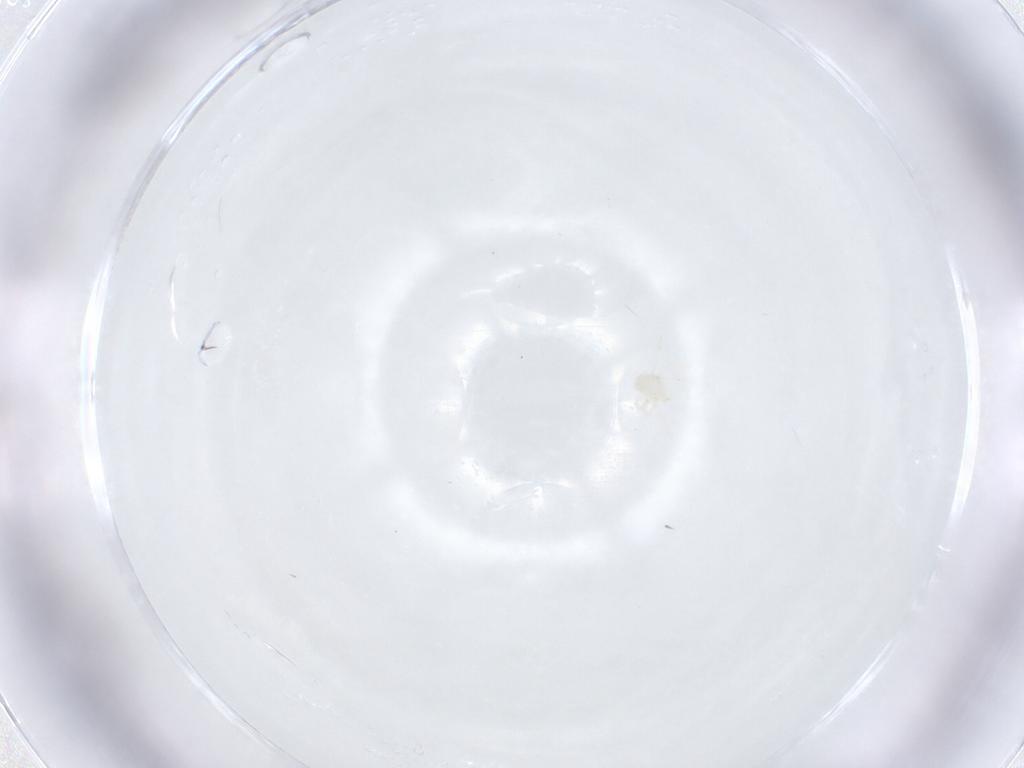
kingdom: Animalia
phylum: Arthropoda
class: Arachnida
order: Trombidiformes
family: Anystidae
